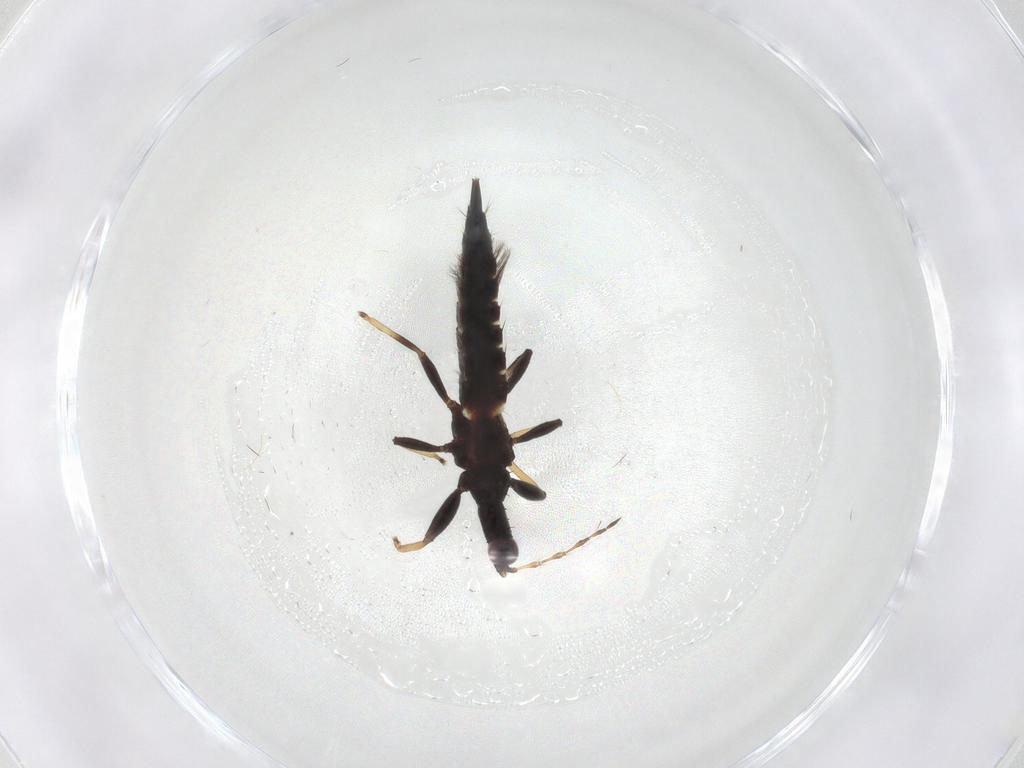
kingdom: Animalia
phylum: Arthropoda
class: Insecta
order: Thysanoptera
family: Phlaeothripidae
